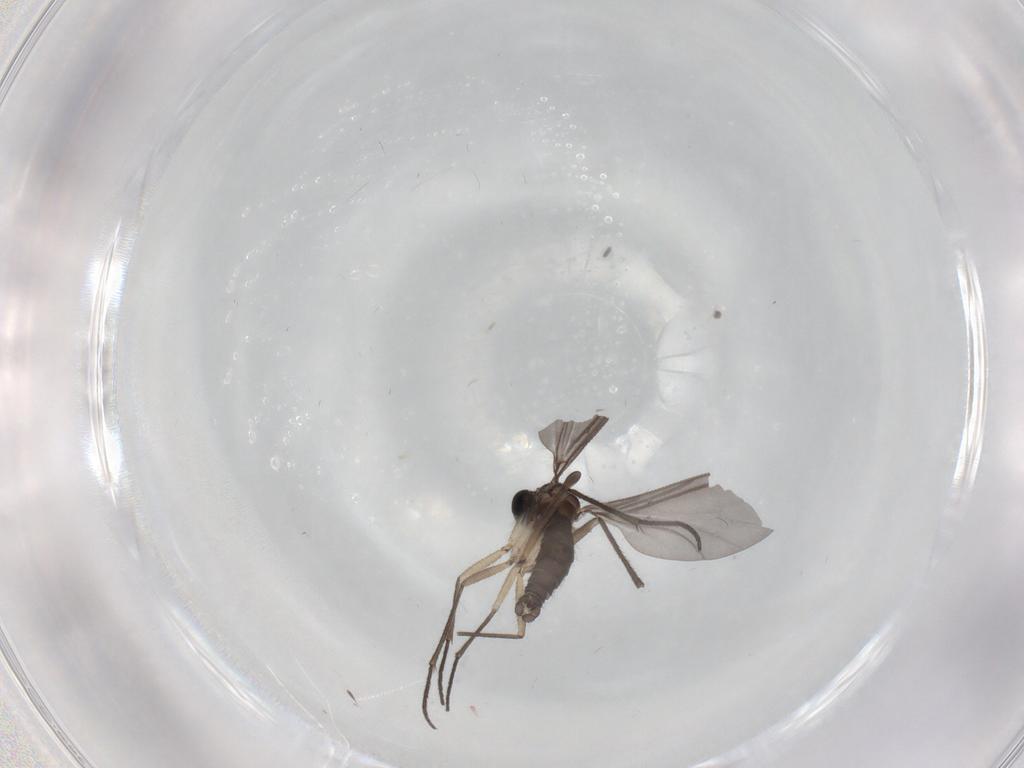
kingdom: Animalia
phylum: Arthropoda
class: Insecta
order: Diptera
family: Sciaridae
